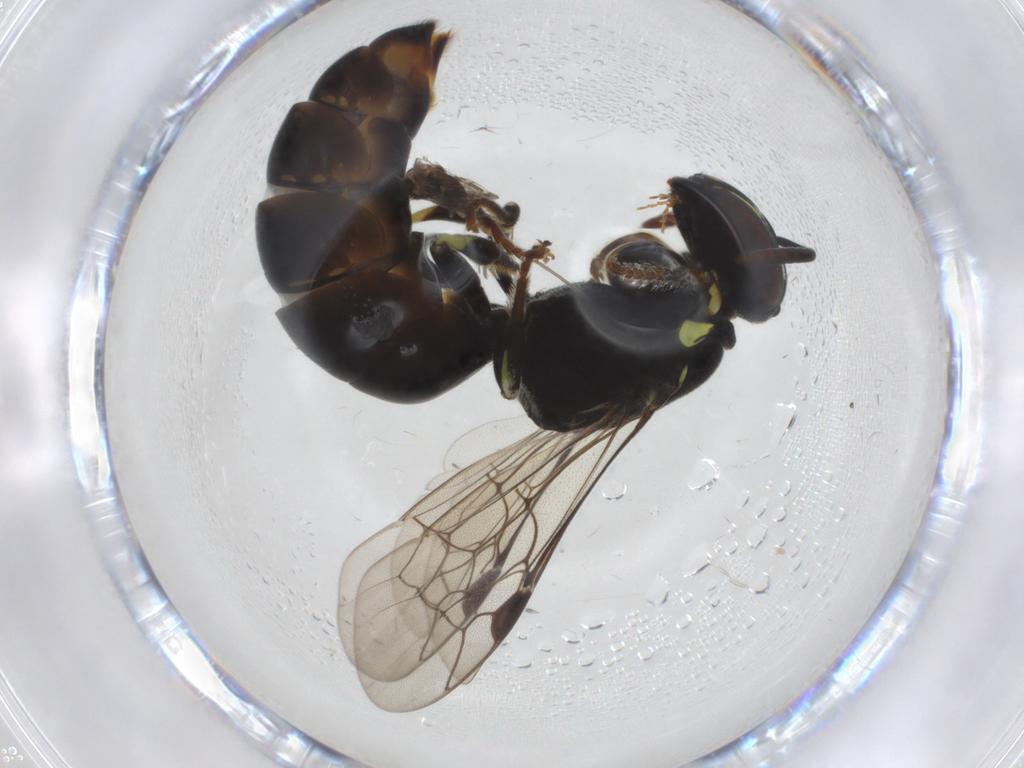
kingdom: Animalia
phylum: Arthropoda
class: Insecta
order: Hymenoptera
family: Colletidae
